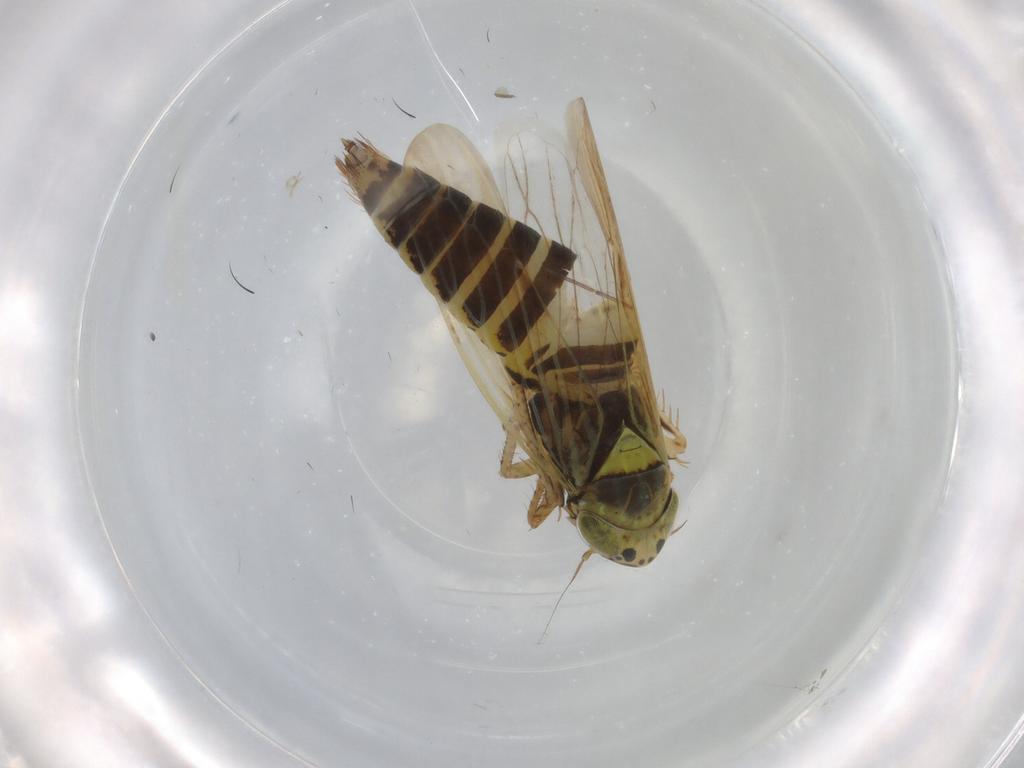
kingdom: Animalia
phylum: Arthropoda
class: Insecta
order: Hemiptera
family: Cicadellidae
